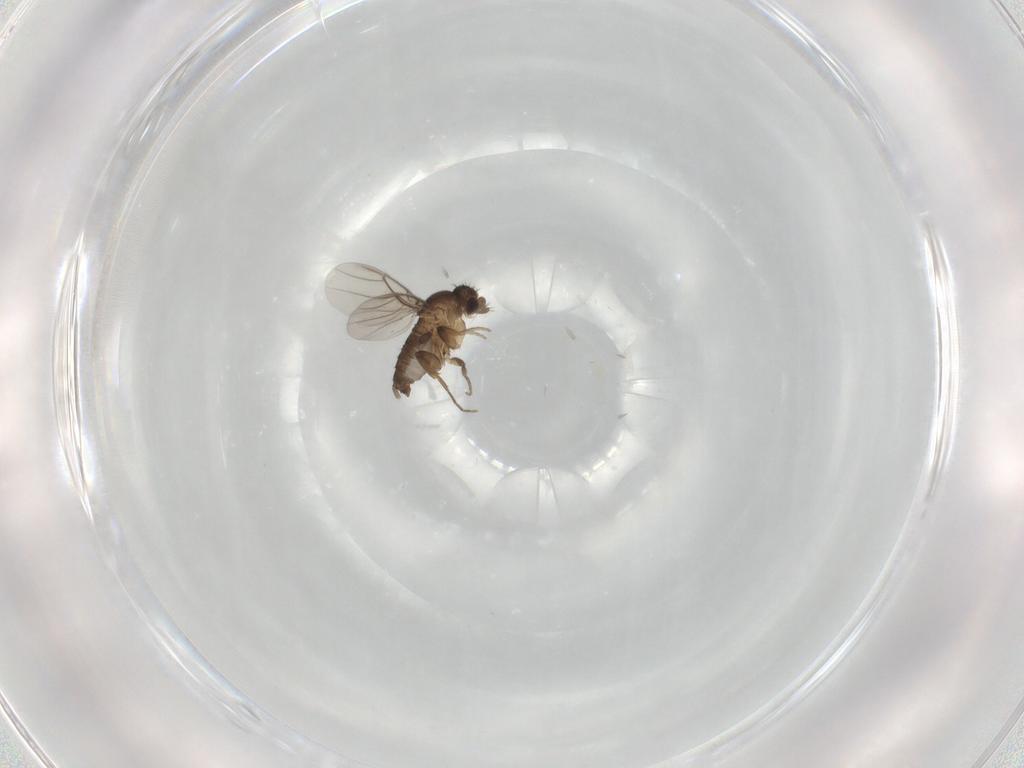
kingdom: Animalia
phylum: Arthropoda
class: Insecta
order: Diptera
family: Phoridae
